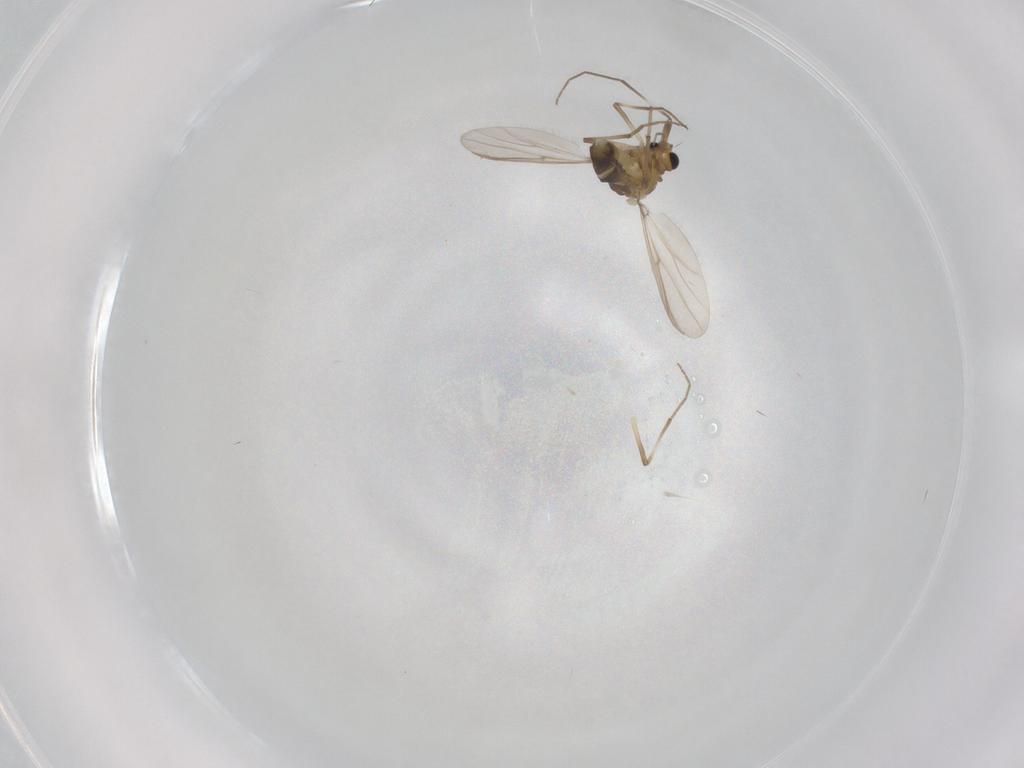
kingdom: Animalia
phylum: Arthropoda
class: Insecta
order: Diptera
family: Chironomidae
